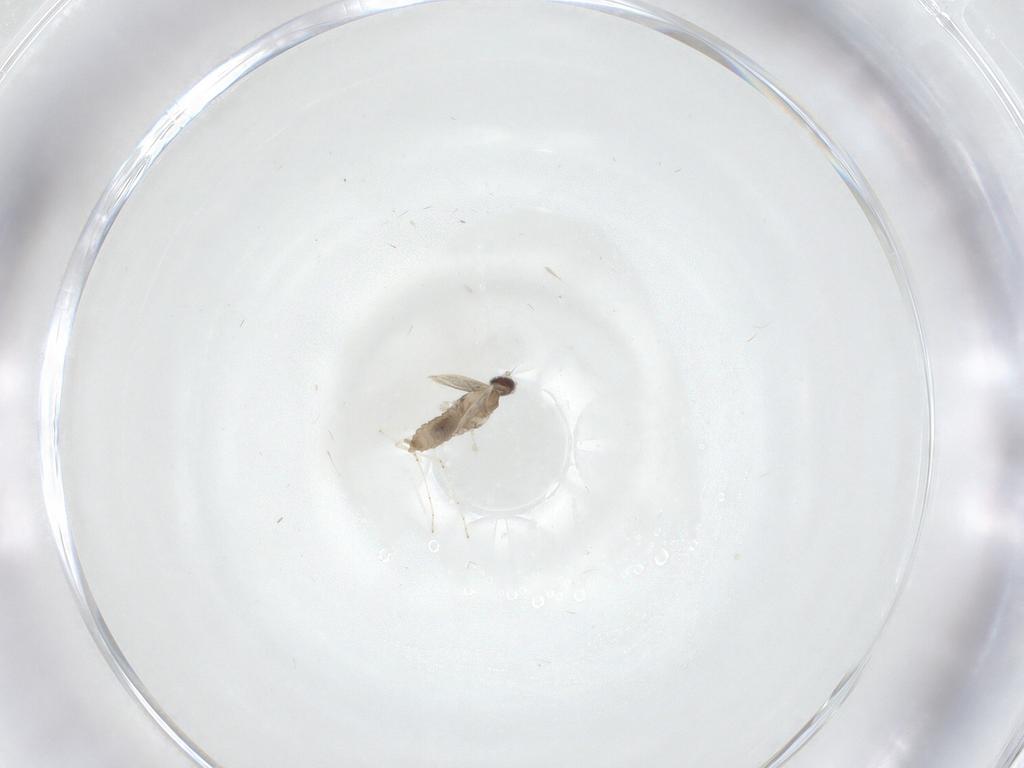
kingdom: Animalia
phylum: Arthropoda
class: Insecta
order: Diptera
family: Cecidomyiidae
